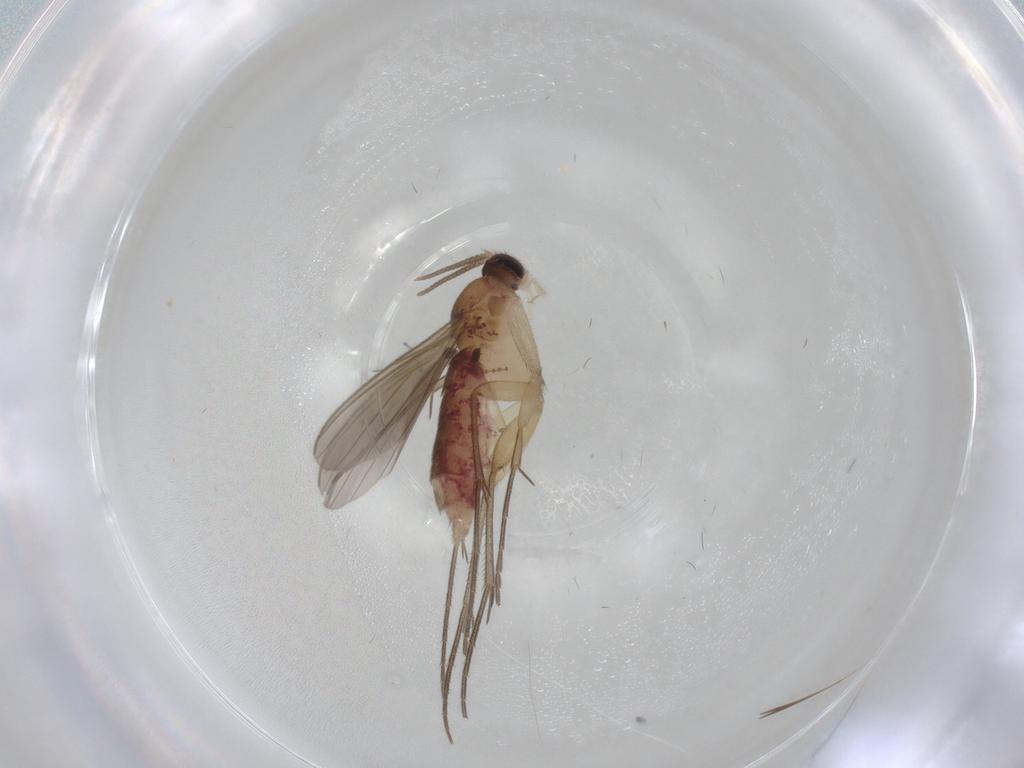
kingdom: Animalia
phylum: Arthropoda
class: Insecta
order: Diptera
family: Mycetophilidae
